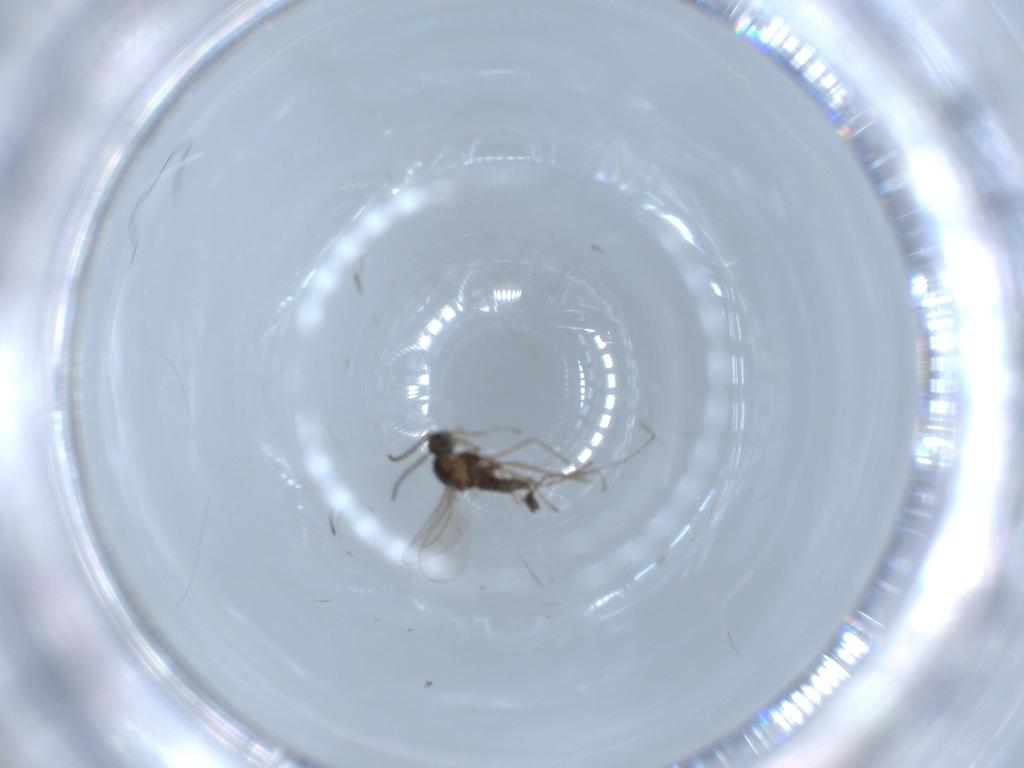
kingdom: Animalia
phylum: Arthropoda
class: Insecta
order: Diptera
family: Cecidomyiidae
